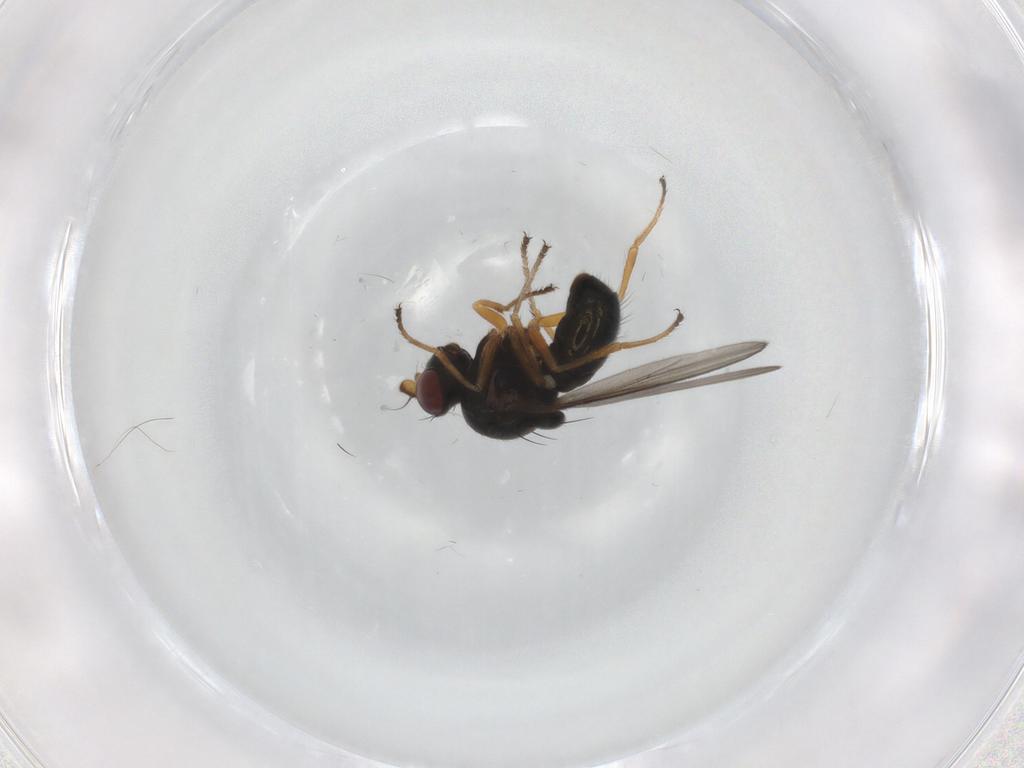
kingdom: Animalia
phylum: Arthropoda
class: Insecta
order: Diptera
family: Ephydridae
